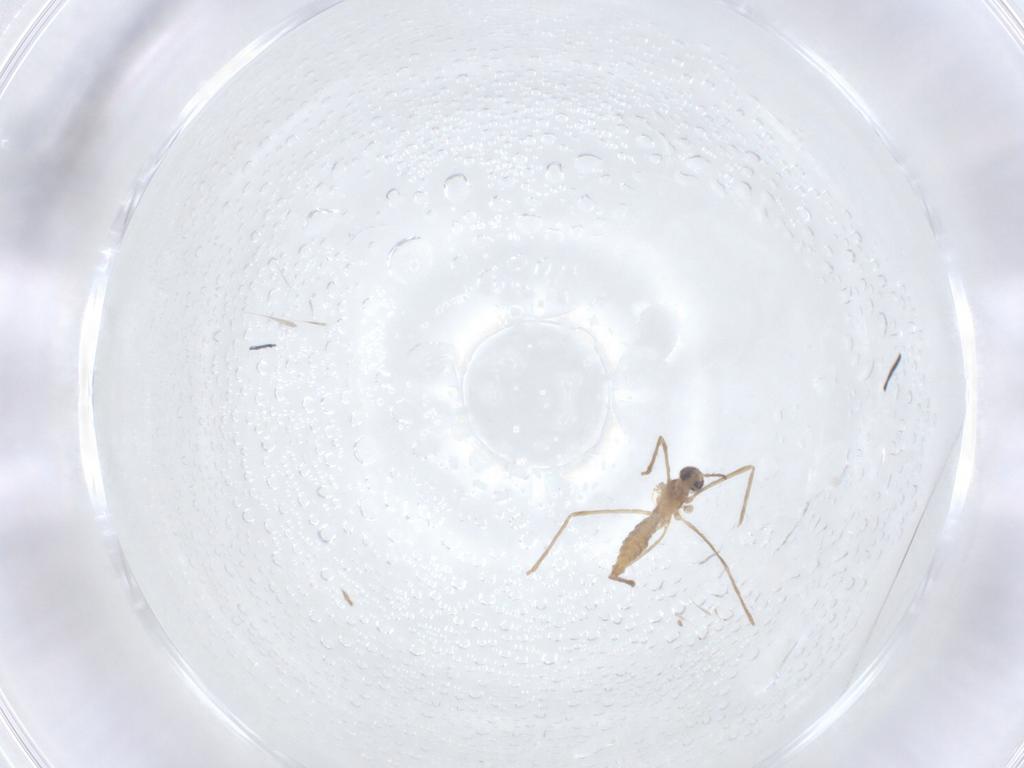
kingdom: Animalia
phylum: Arthropoda
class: Insecta
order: Diptera
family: Cecidomyiidae
